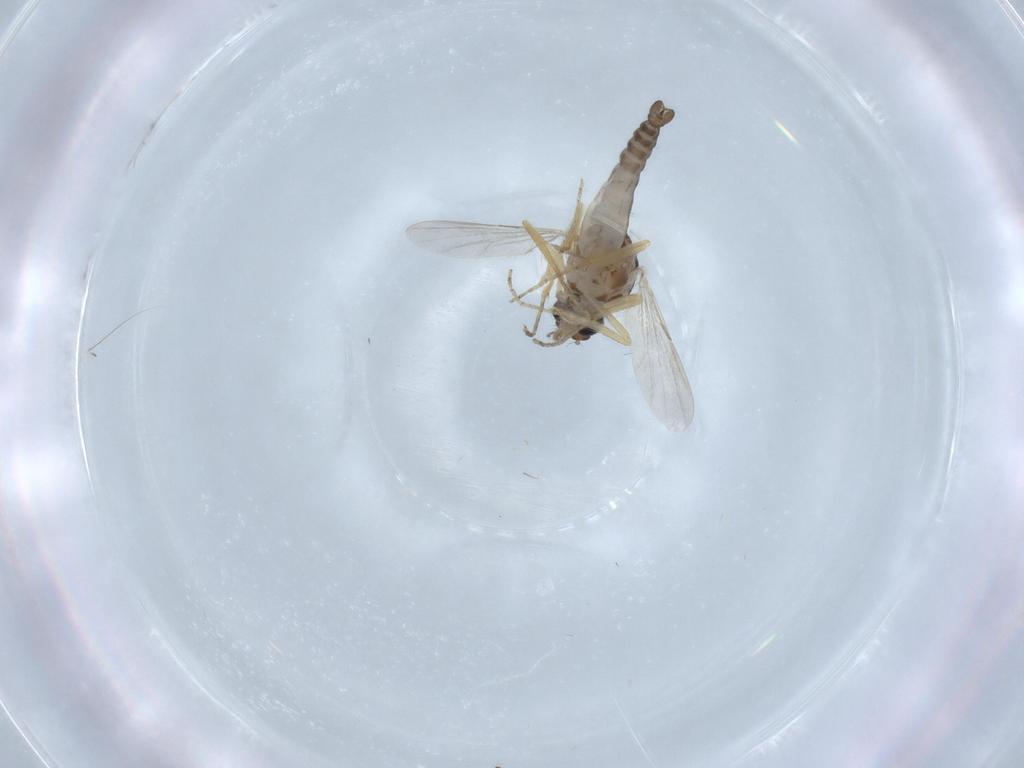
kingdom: Animalia
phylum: Arthropoda
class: Insecta
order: Diptera
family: Ceratopogonidae
